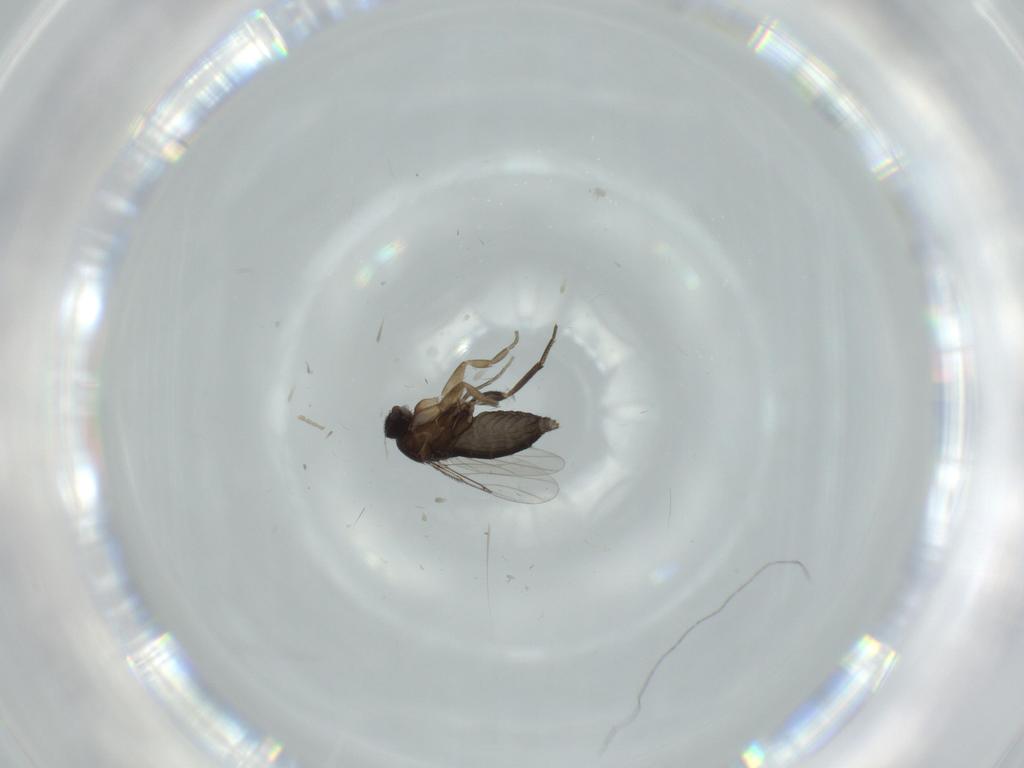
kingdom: Animalia
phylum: Arthropoda
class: Insecta
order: Diptera
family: Phoridae
